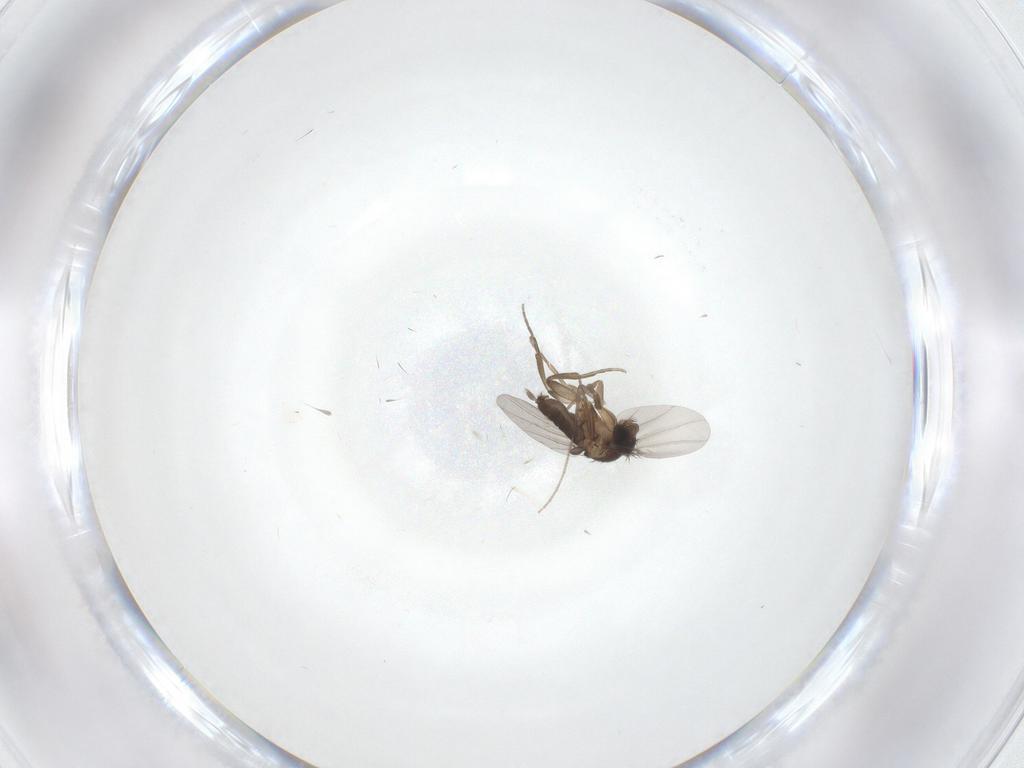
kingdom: Animalia
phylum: Arthropoda
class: Insecta
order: Diptera
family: Phoridae
